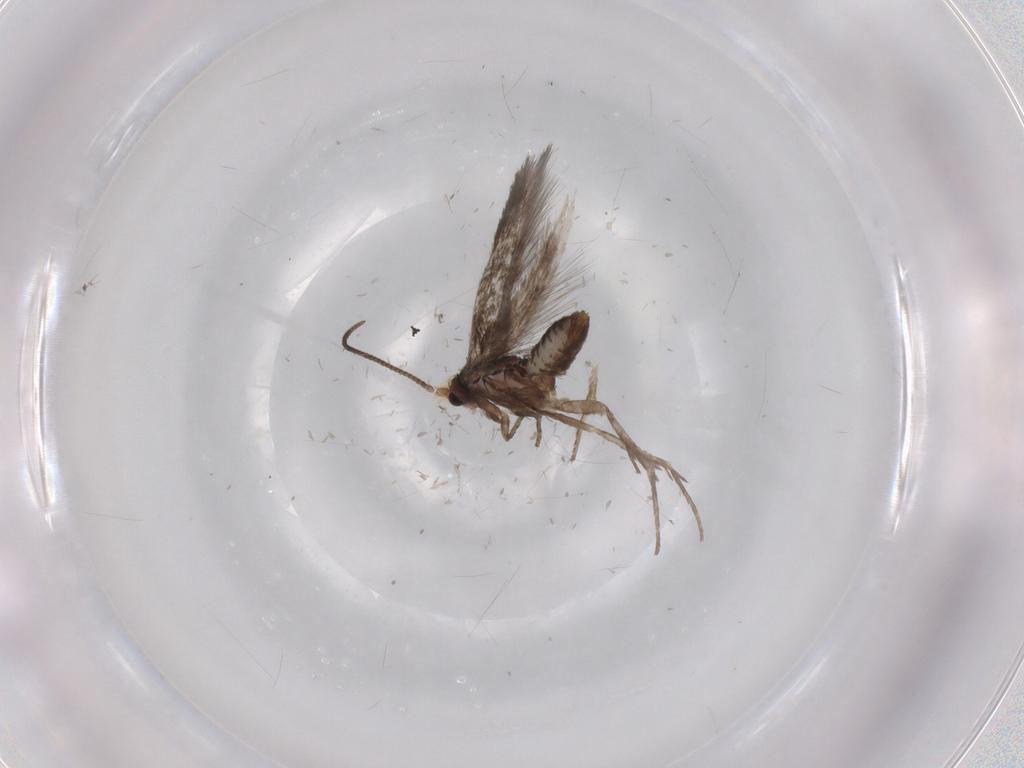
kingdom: Animalia
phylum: Arthropoda
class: Insecta
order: Lepidoptera
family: Nepticulidae
